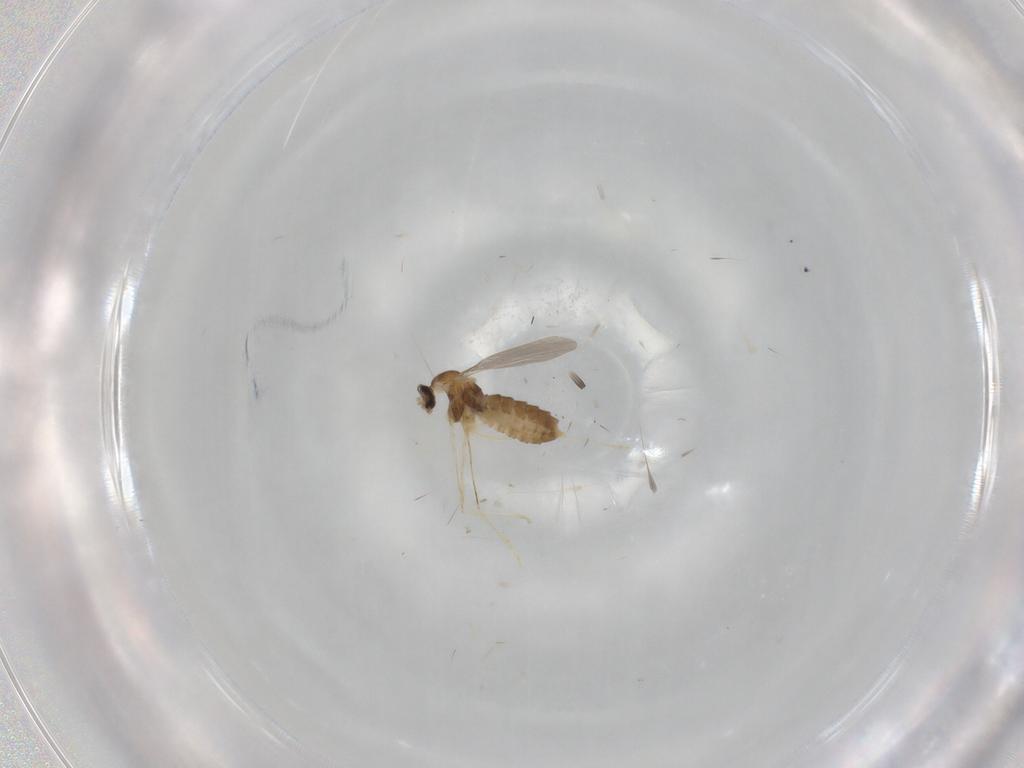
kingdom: Animalia
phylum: Arthropoda
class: Insecta
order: Diptera
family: Cecidomyiidae
